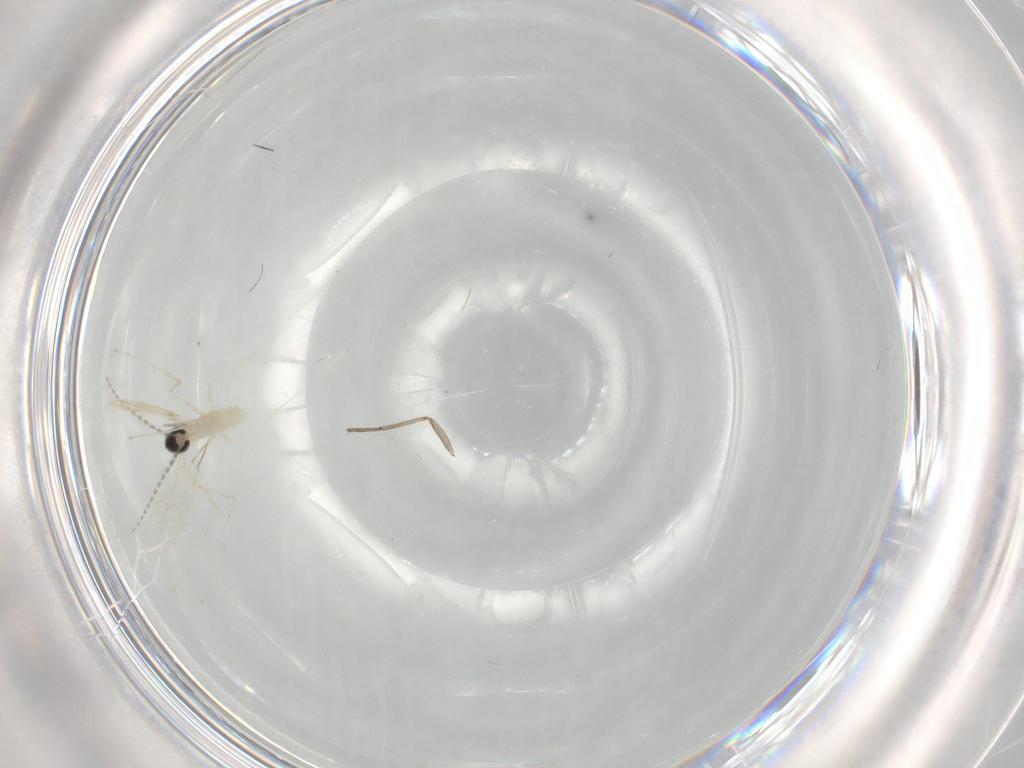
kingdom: Animalia
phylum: Arthropoda
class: Insecta
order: Diptera
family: Cecidomyiidae
